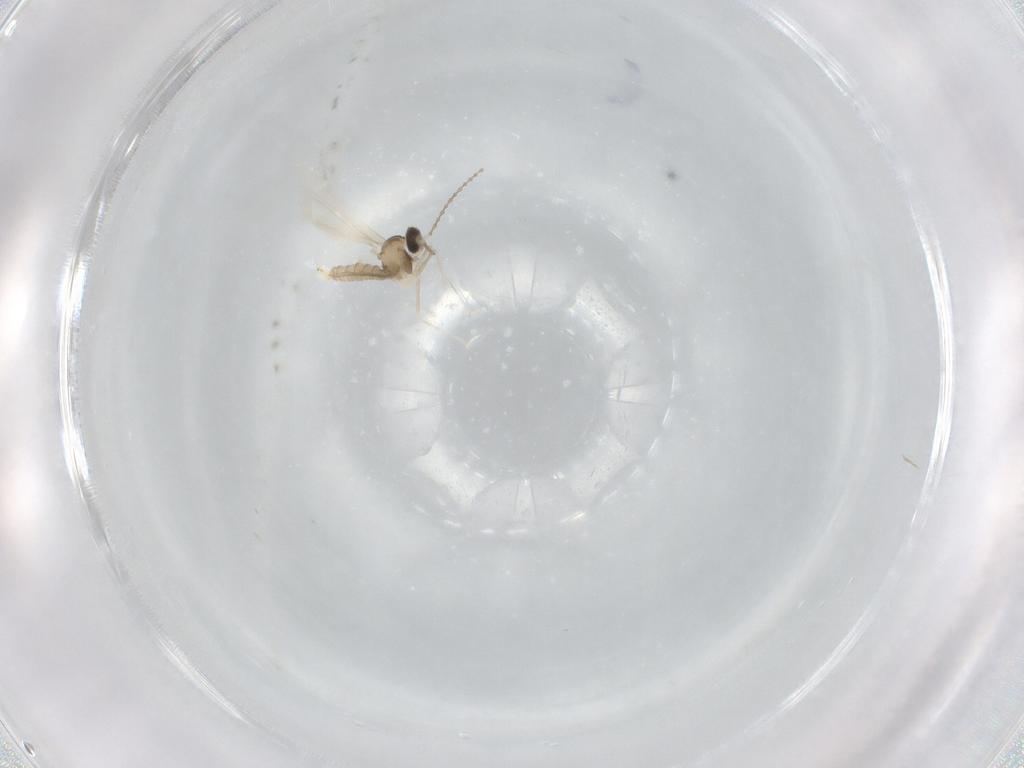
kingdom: Animalia
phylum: Arthropoda
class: Insecta
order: Diptera
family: Cecidomyiidae
